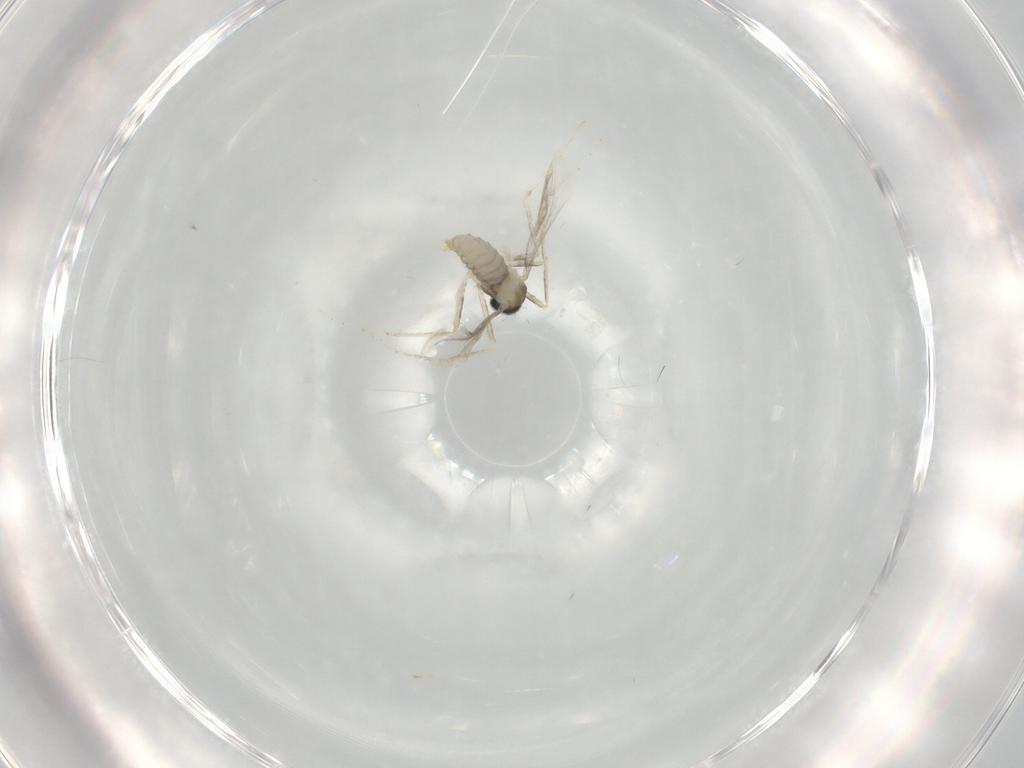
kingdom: Animalia
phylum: Arthropoda
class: Insecta
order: Diptera
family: Cecidomyiidae
